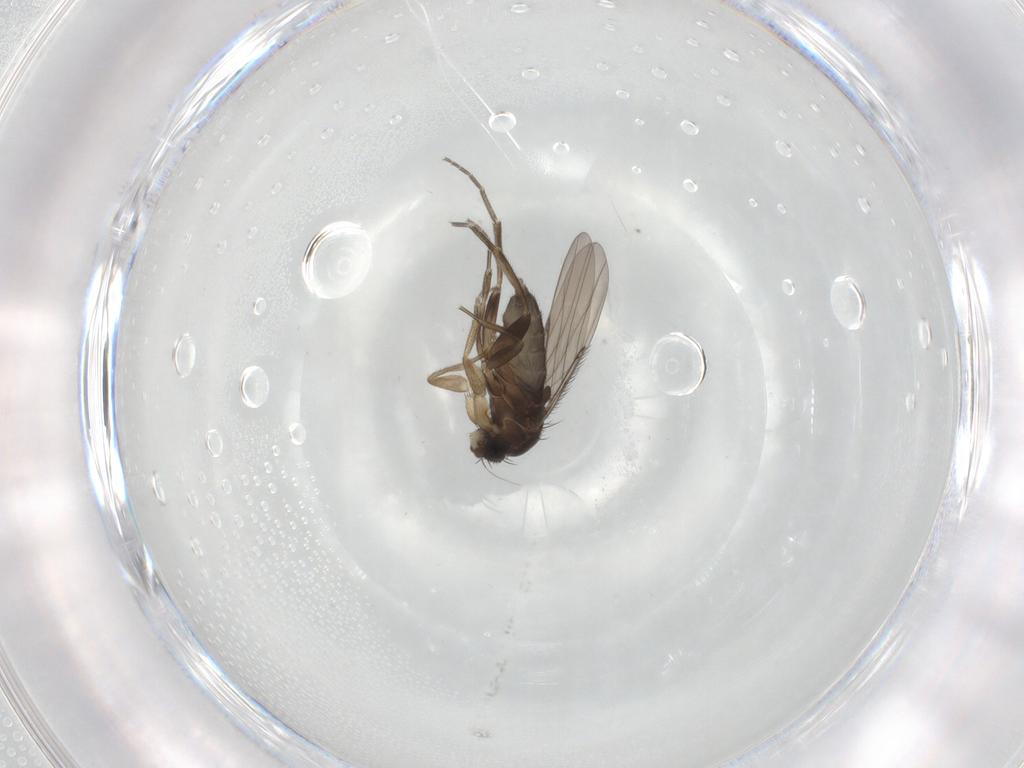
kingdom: Animalia
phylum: Arthropoda
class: Insecta
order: Diptera
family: Phoridae
